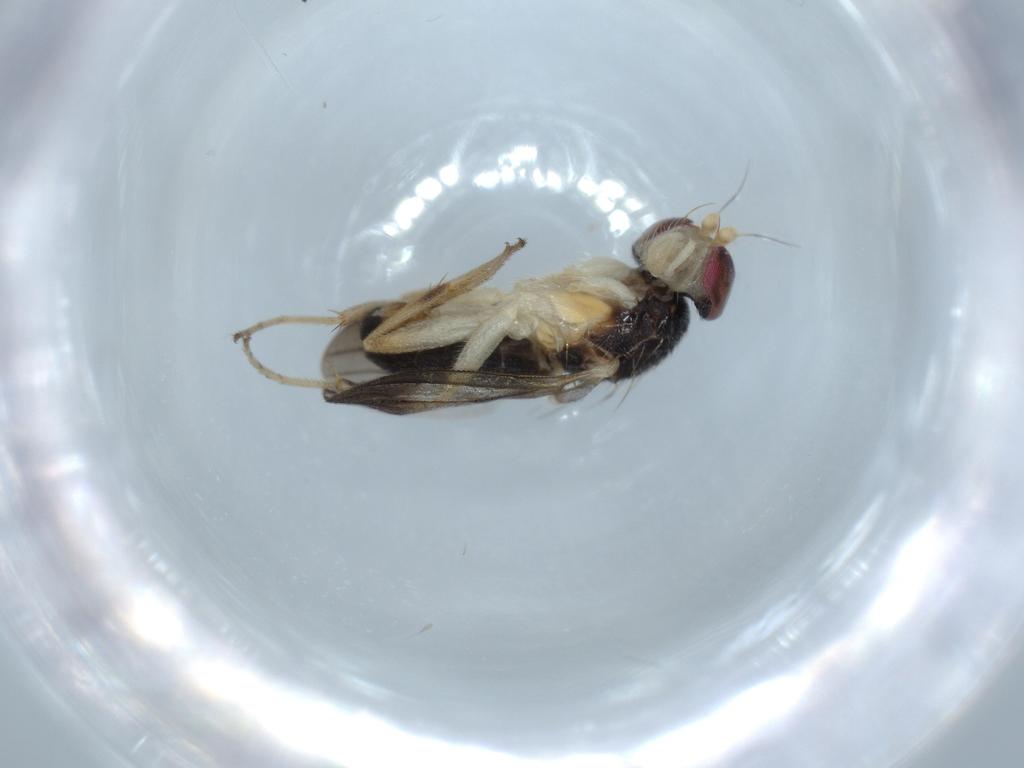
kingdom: Animalia
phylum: Arthropoda
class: Insecta
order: Diptera
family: Clusiidae
